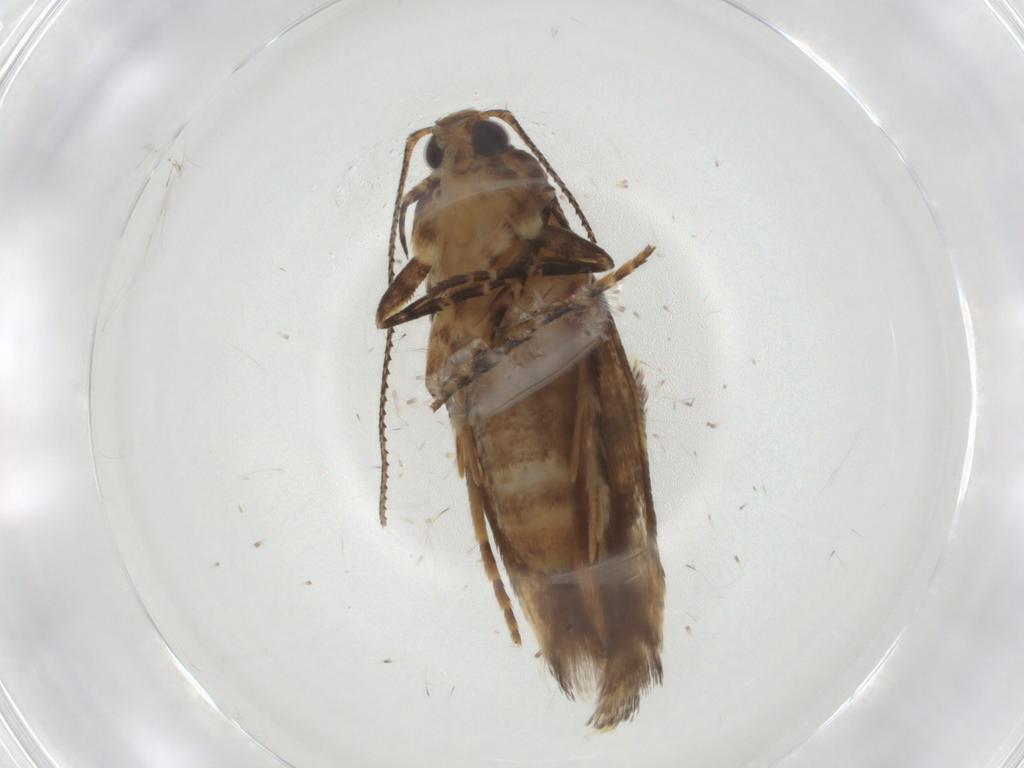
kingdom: Animalia
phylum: Arthropoda
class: Insecta
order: Lepidoptera
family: Gelechiidae
